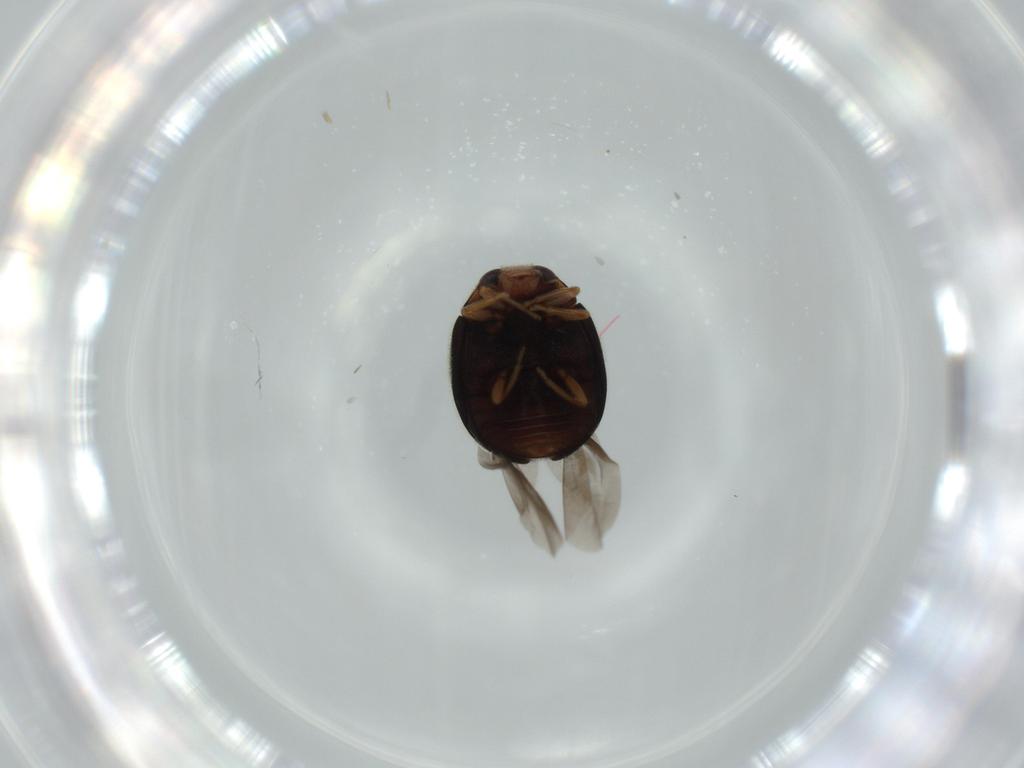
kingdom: Animalia
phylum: Arthropoda
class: Insecta
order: Coleoptera
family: Coccinellidae
